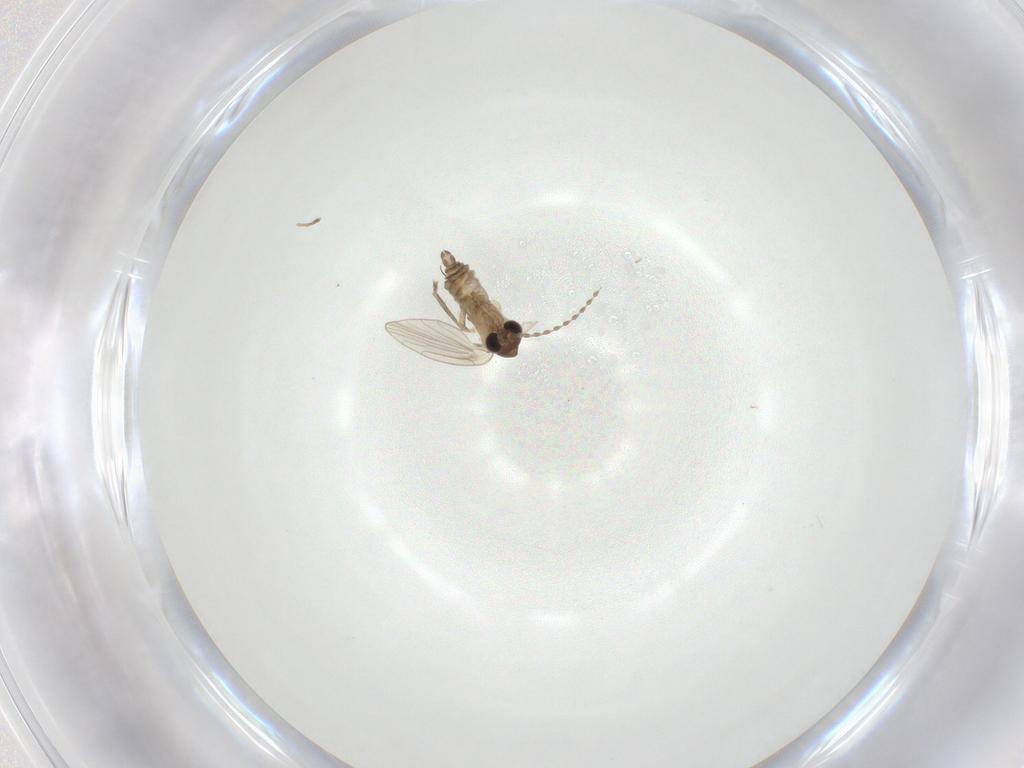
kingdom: Animalia
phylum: Arthropoda
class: Insecta
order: Diptera
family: Psychodidae
